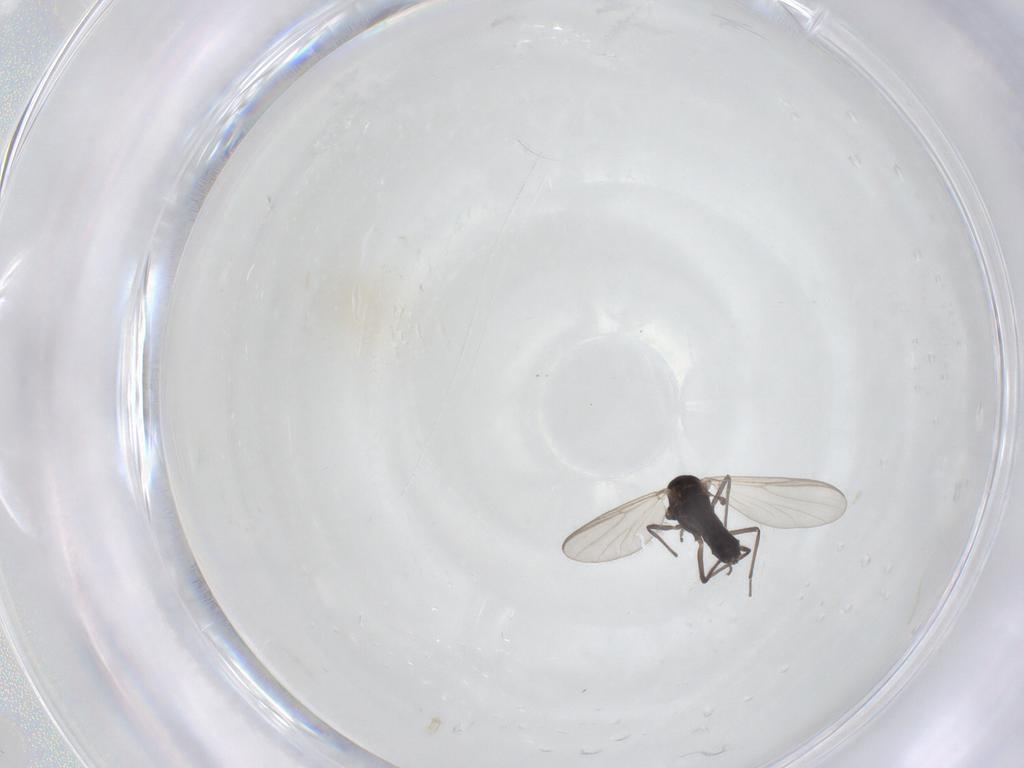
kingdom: Animalia
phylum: Arthropoda
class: Insecta
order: Diptera
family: Chironomidae
